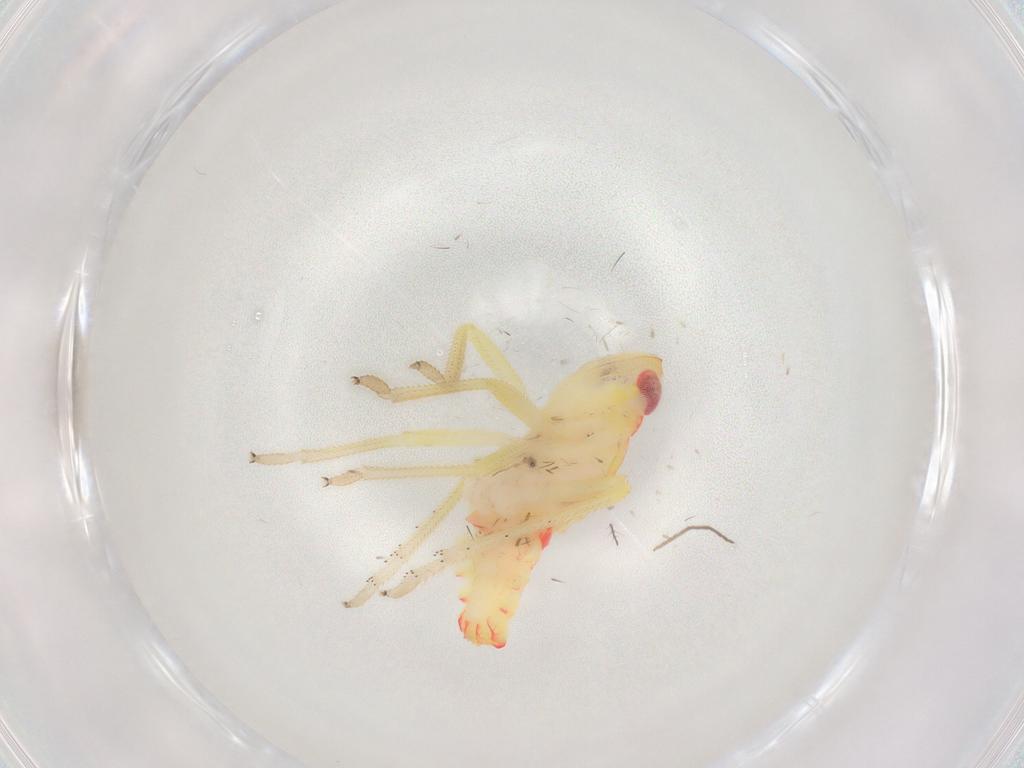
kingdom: Animalia
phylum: Arthropoda
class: Insecta
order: Hemiptera
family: Tropiduchidae
